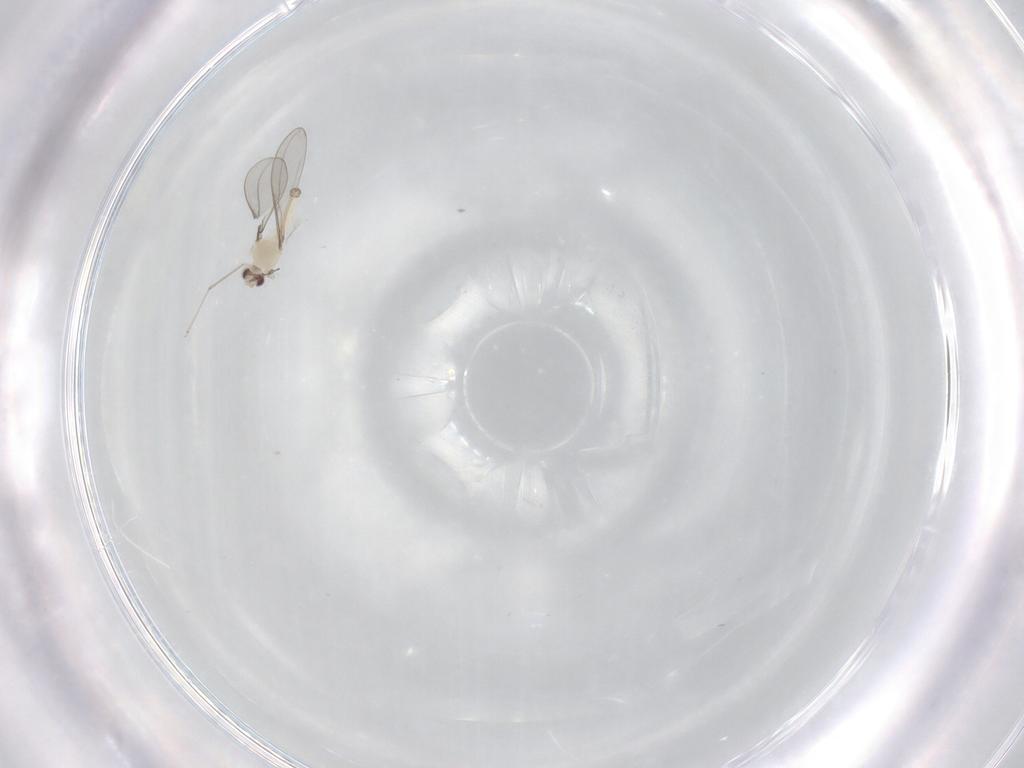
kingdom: Animalia
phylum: Arthropoda
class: Insecta
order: Diptera
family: Cecidomyiidae
